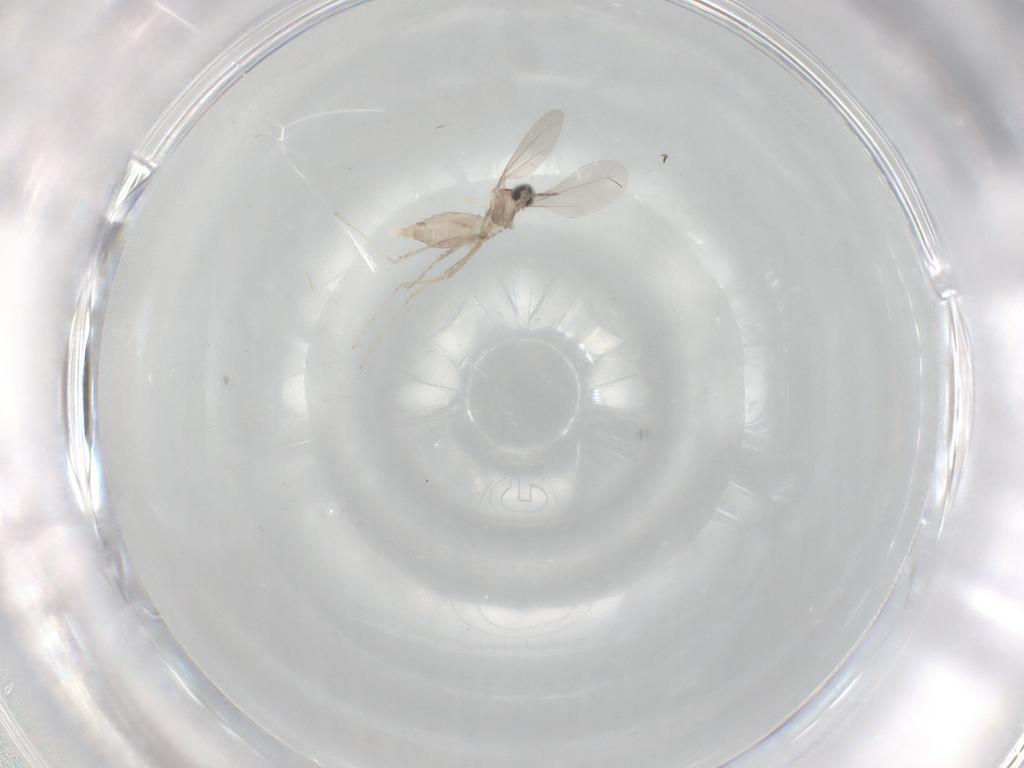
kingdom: Animalia
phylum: Arthropoda
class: Insecta
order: Diptera
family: Cecidomyiidae
